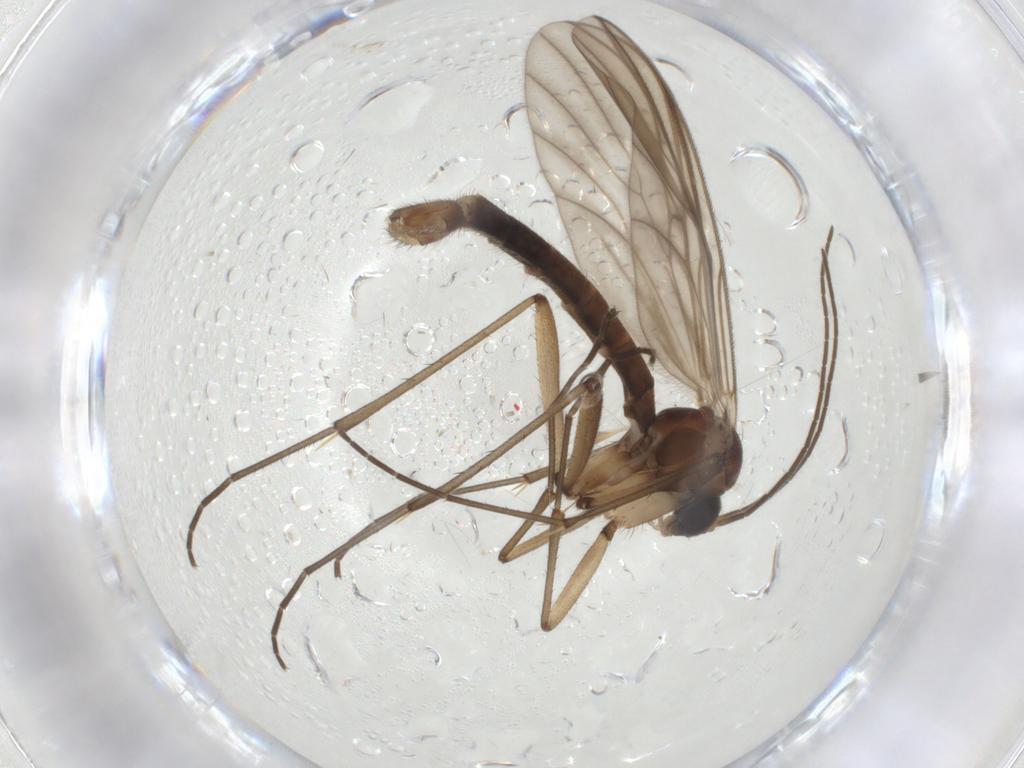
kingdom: Animalia
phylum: Arthropoda
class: Insecta
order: Diptera
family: Mycetophilidae
